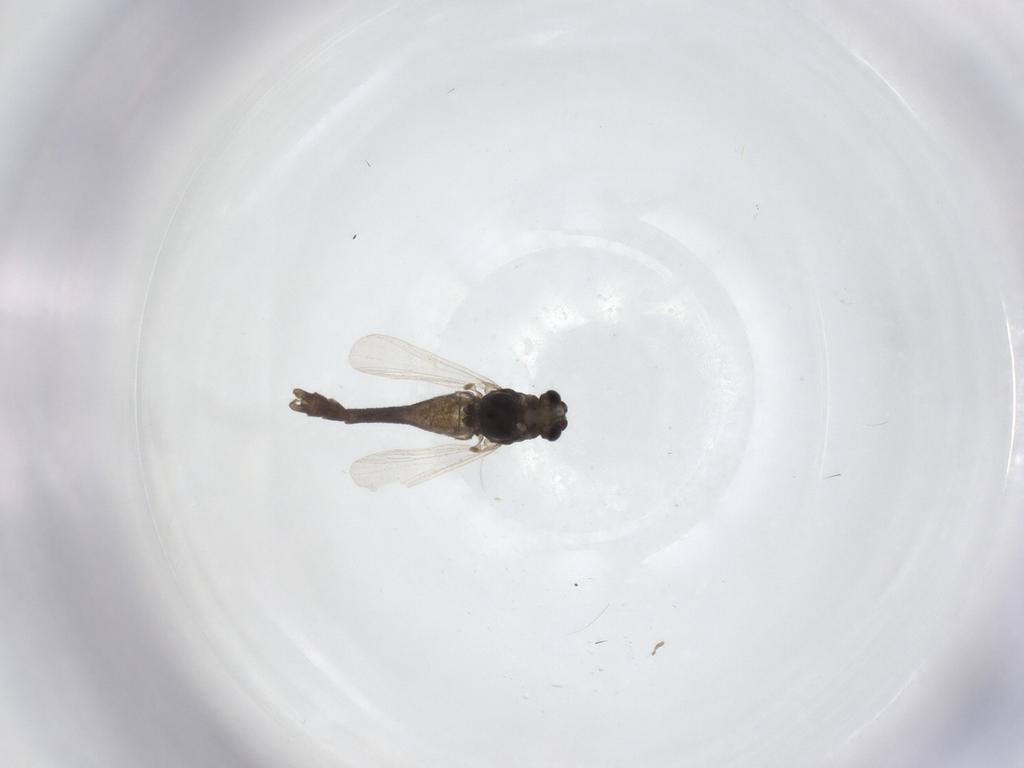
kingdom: Animalia
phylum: Arthropoda
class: Insecta
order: Diptera
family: Chironomidae
